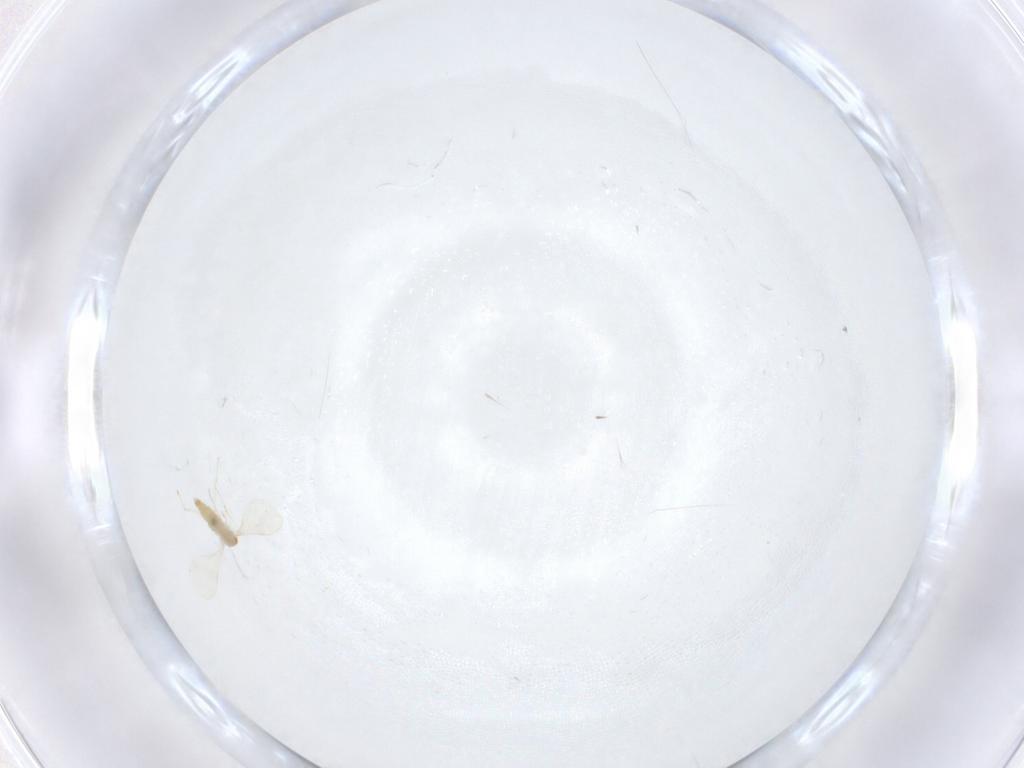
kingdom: Animalia
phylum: Arthropoda
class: Insecta
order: Diptera
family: Cecidomyiidae
